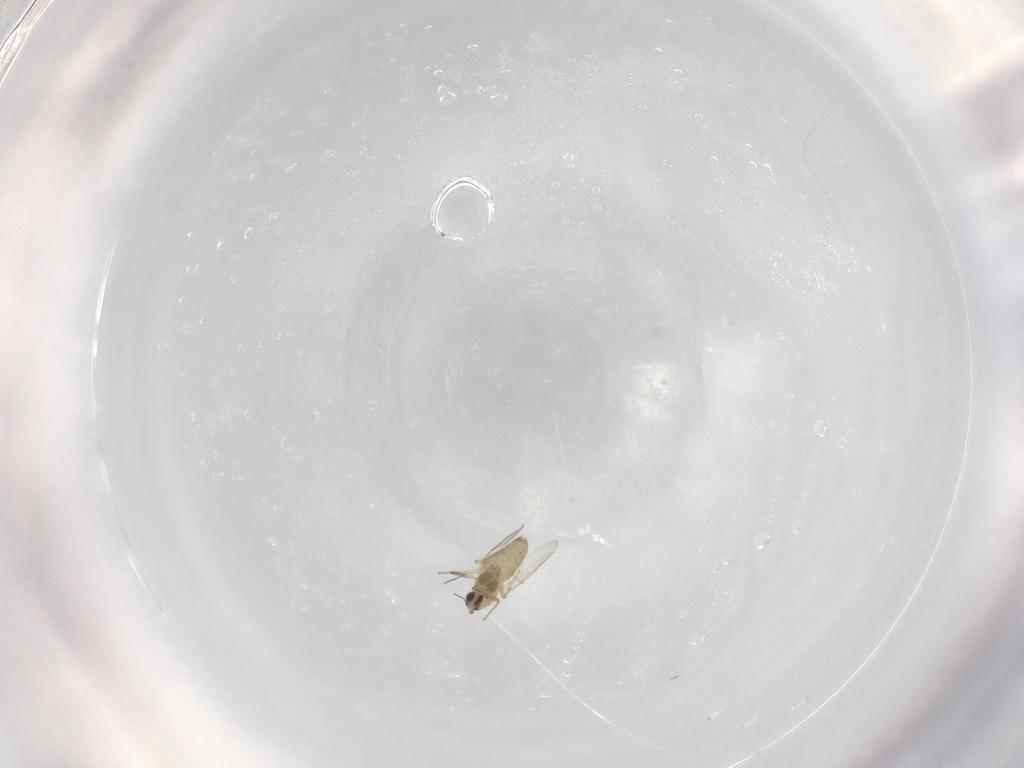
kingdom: Animalia
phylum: Arthropoda
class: Insecta
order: Diptera
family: Chironomidae
